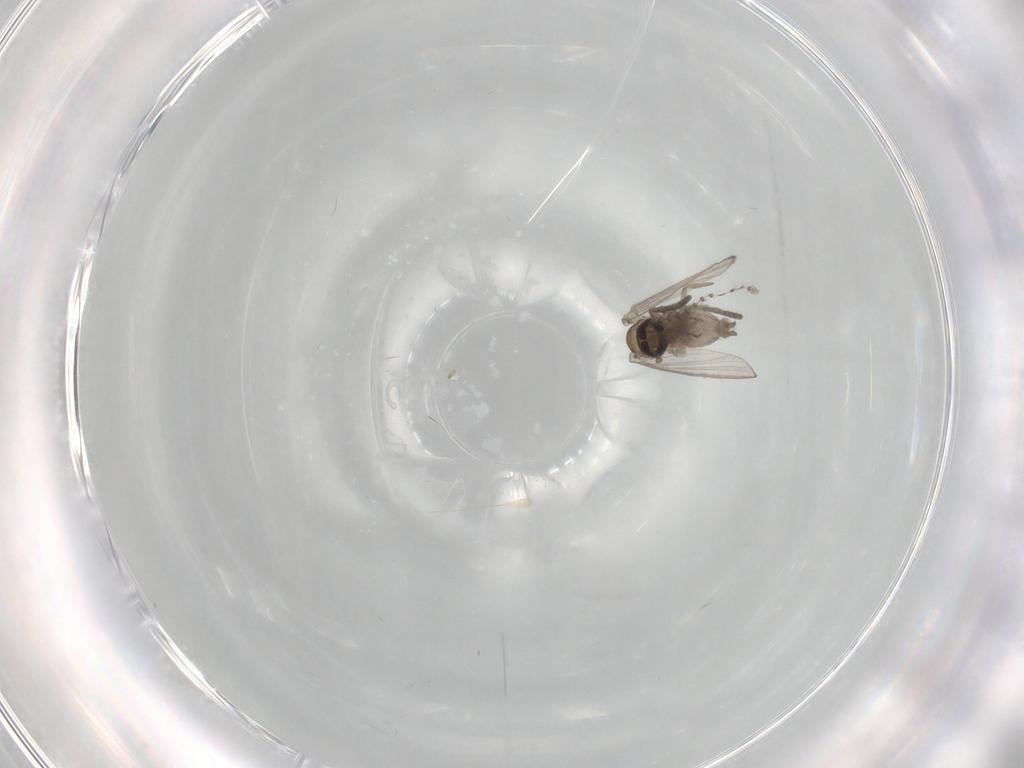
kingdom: Animalia
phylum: Arthropoda
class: Insecta
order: Diptera
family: Psychodidae
